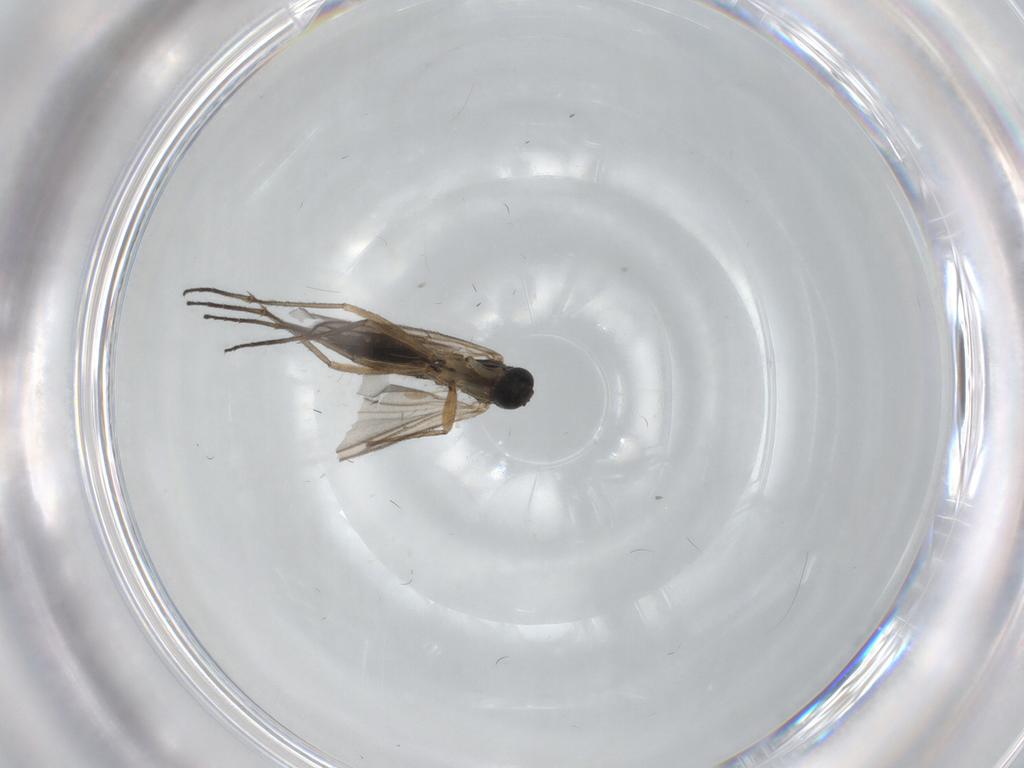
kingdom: Animalia
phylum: Arthropoda
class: Insecta
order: Diptera
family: Sciaridae
